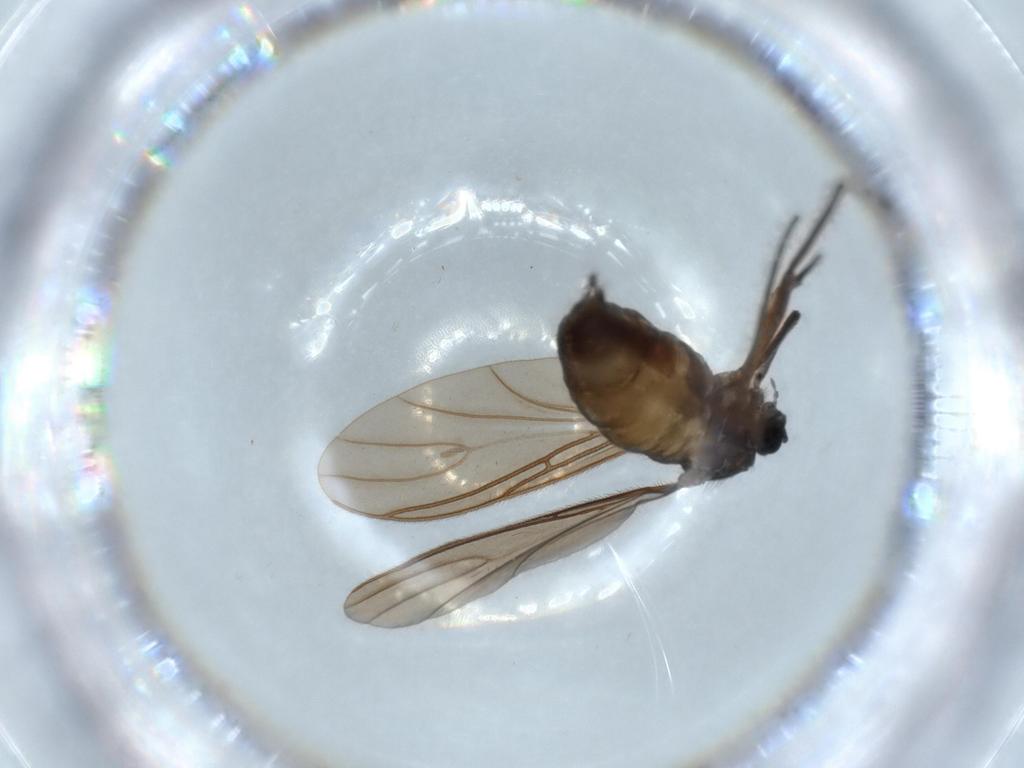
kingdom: Animalia
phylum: Arthropoda
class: Insecta
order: Diptera
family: Sciaridae
